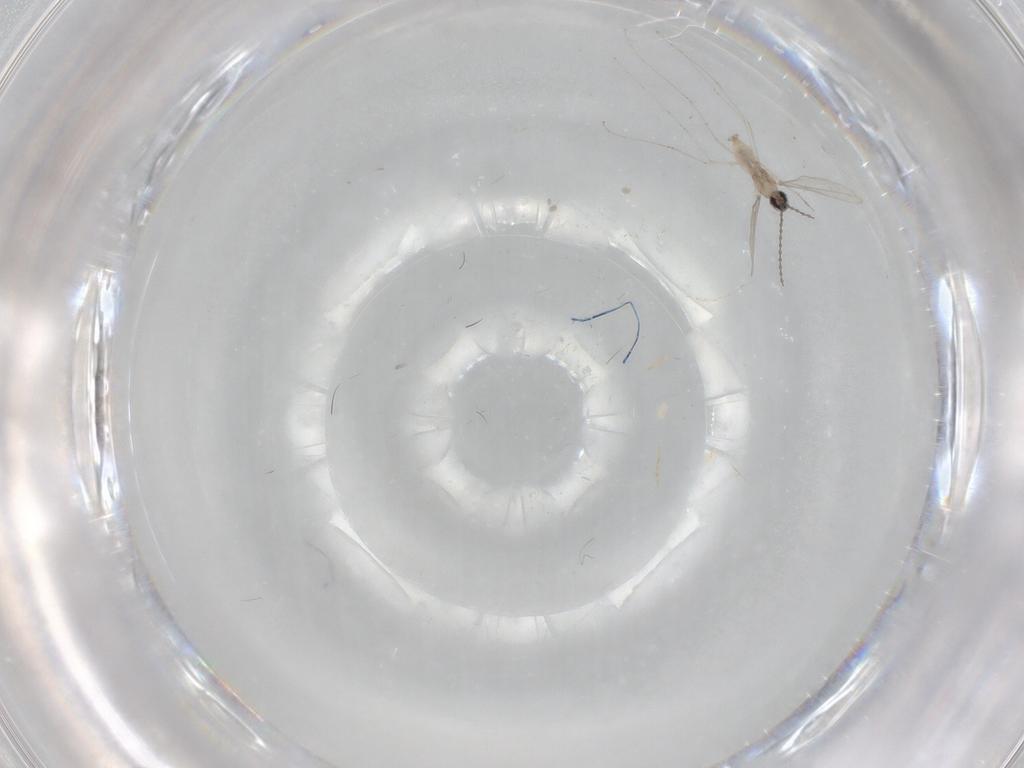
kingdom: Animalia
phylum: Arthropoda
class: Insecta
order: Diptera
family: Cecidomyiidae
